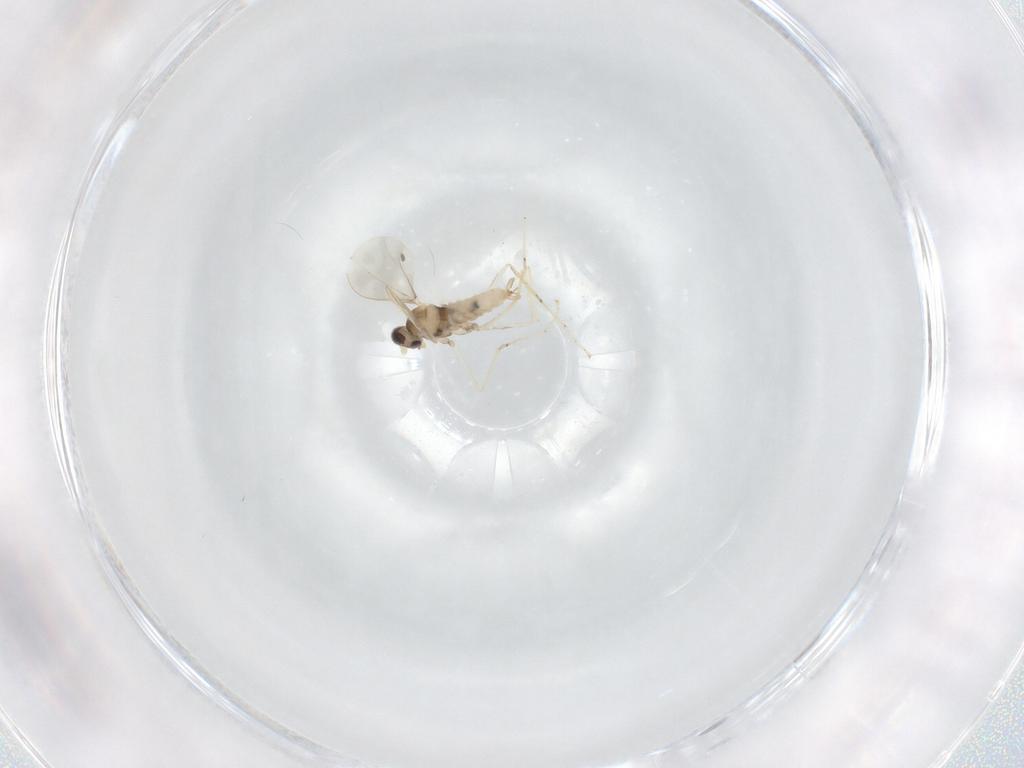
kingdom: Animalia
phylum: Arthropoda
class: Insecta
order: Diptera
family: Cecidomyiidae
